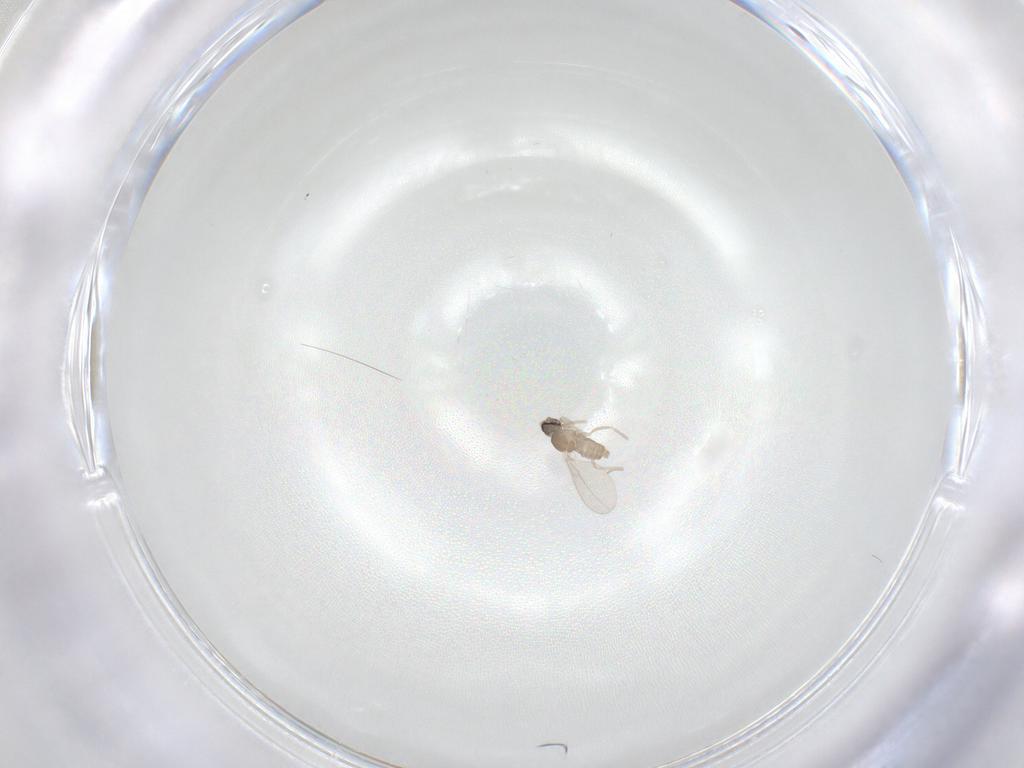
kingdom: Animalia
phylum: Arthropoda
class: Insecta
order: Diptera
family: Cecidomyiidae
